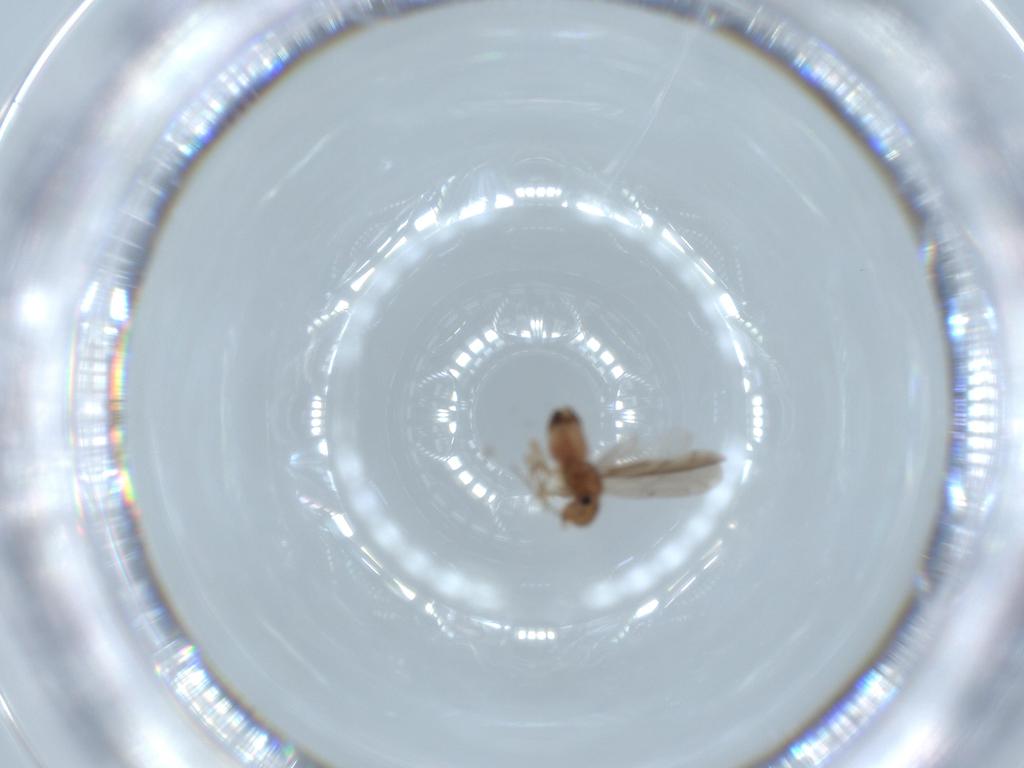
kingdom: Animalia
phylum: Arthropoda
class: Insecta
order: Psocodea
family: Ectopsocidae
